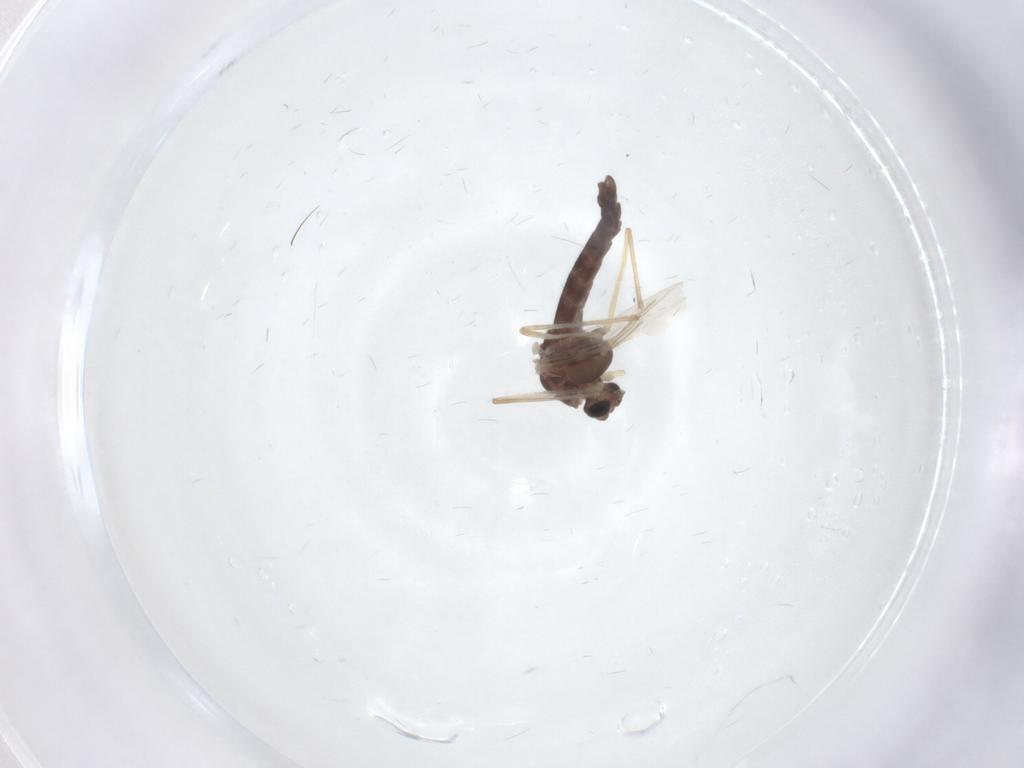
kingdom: Animalia
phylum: Arthropoda
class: Insecta
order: Diptera
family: Chironomidae
